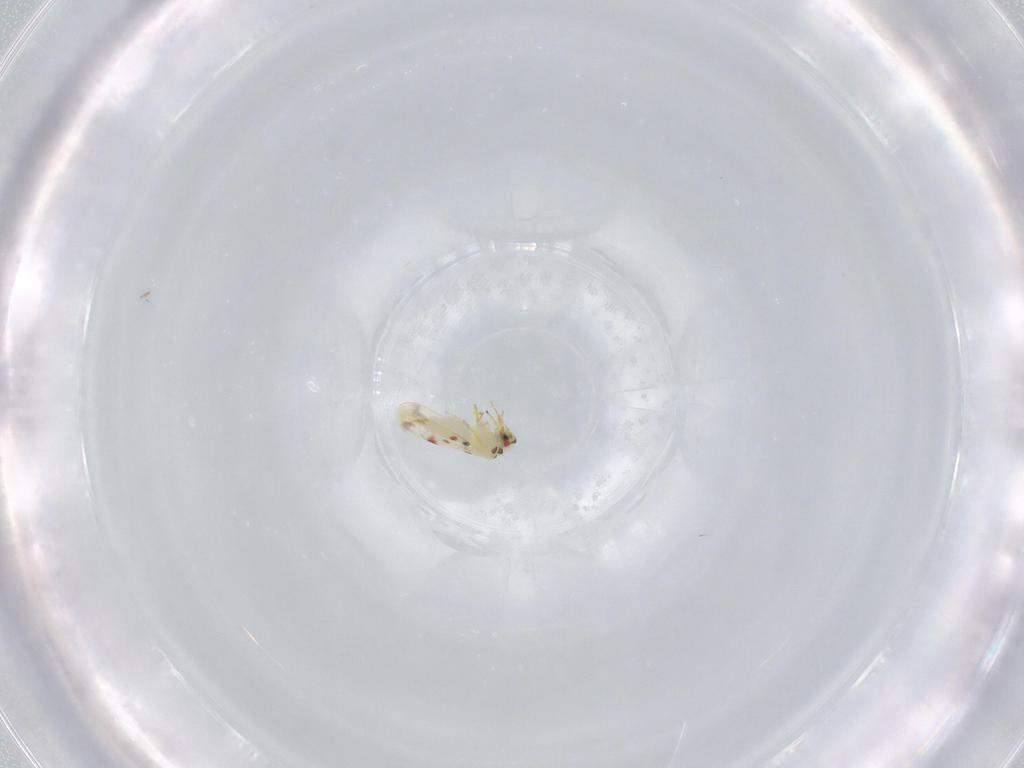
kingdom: Animalia
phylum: Arthropoda
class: Insecta
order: Hemiptera
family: Aleyrodidae
